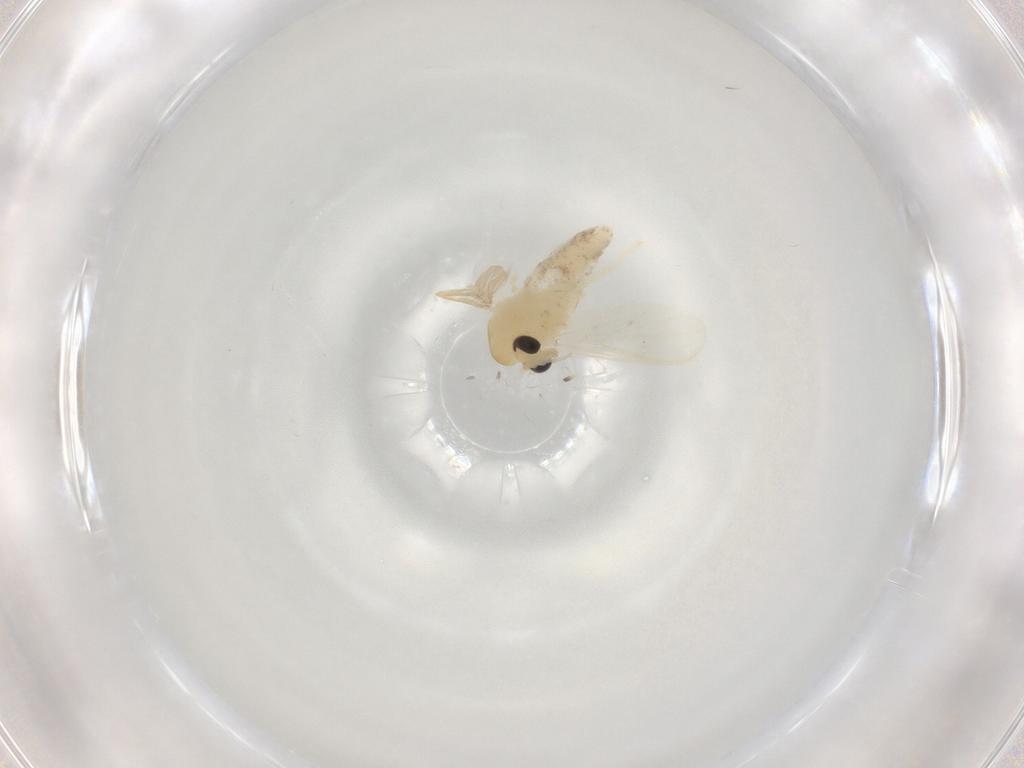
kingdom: Animalia
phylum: Arthropoda
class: Insecta
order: Diptera
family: Chironomidae
